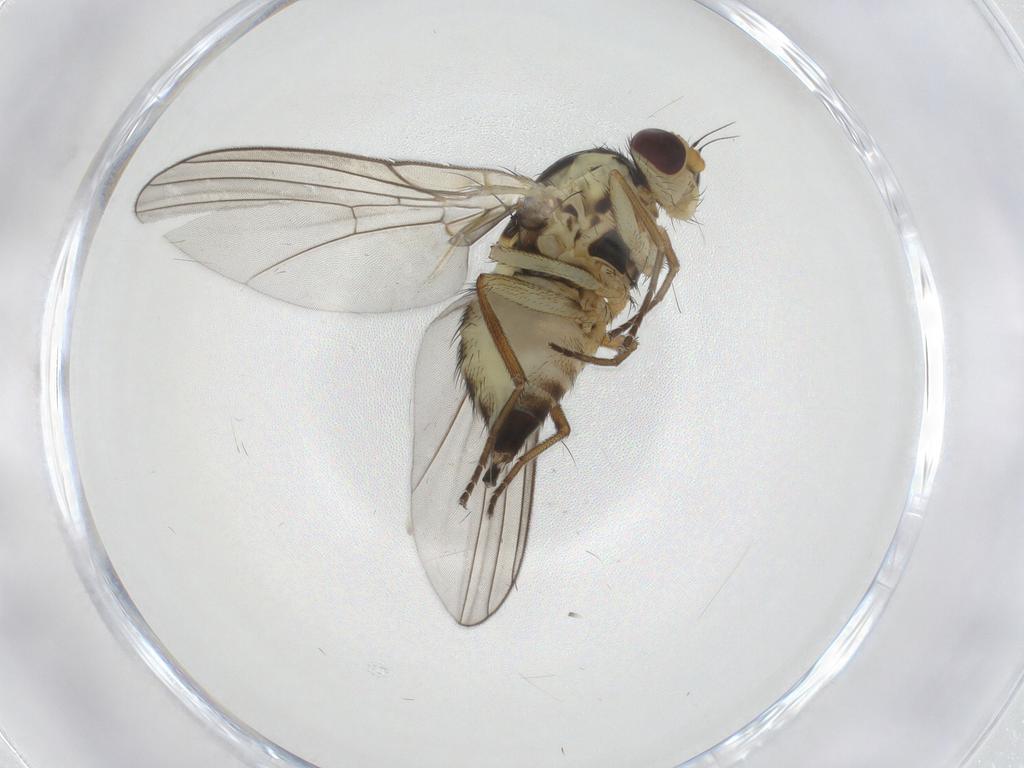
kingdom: Animalia
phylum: Arthropoda
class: Insecta
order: Diptera
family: Agromyzidae
